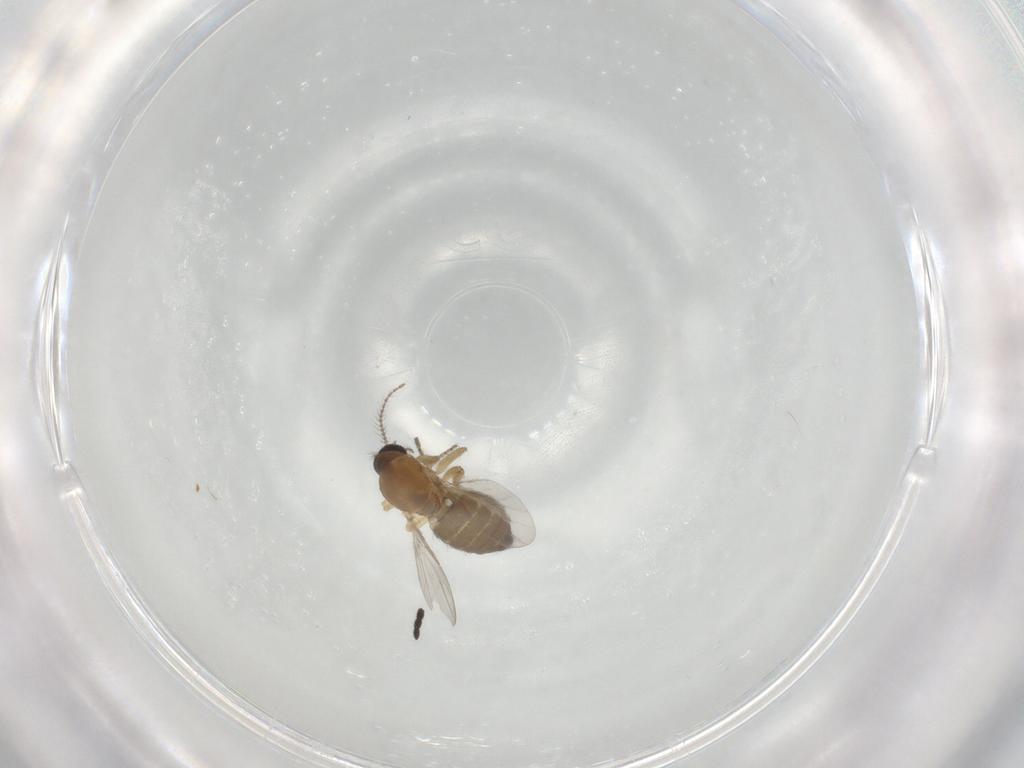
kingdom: Animalia
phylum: Arthropoda
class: Insecta
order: Diptera
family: Ceratopogonidae
